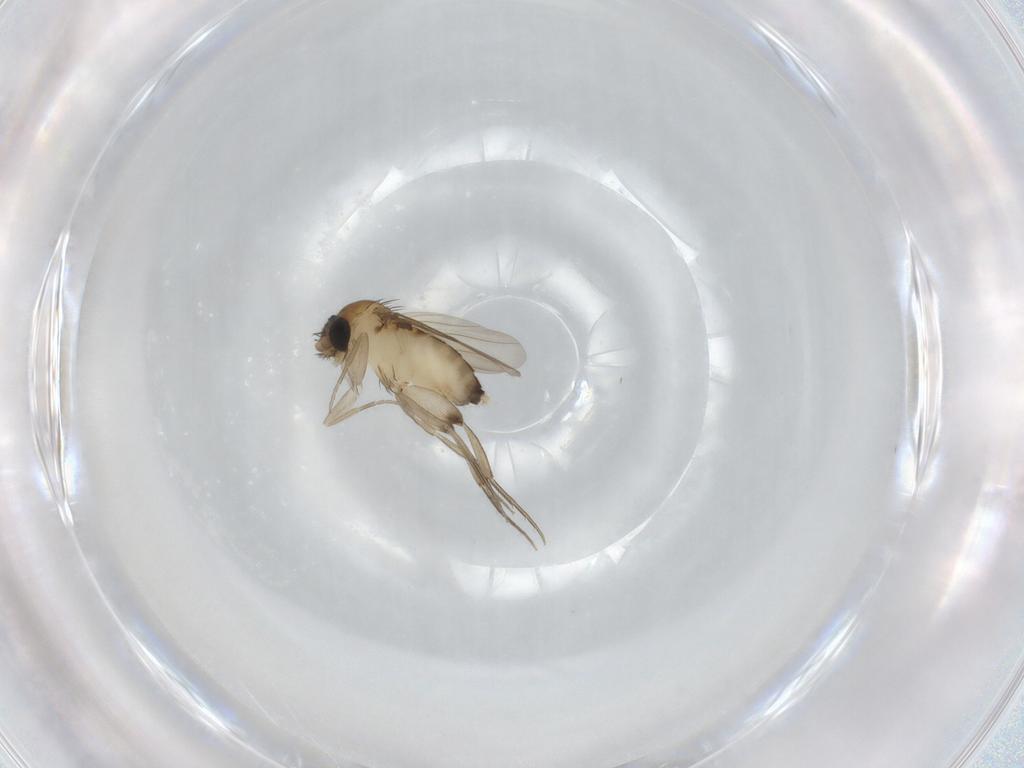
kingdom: Animalia
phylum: Arthropoda
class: Insecta
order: Diptera
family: Phoridae
